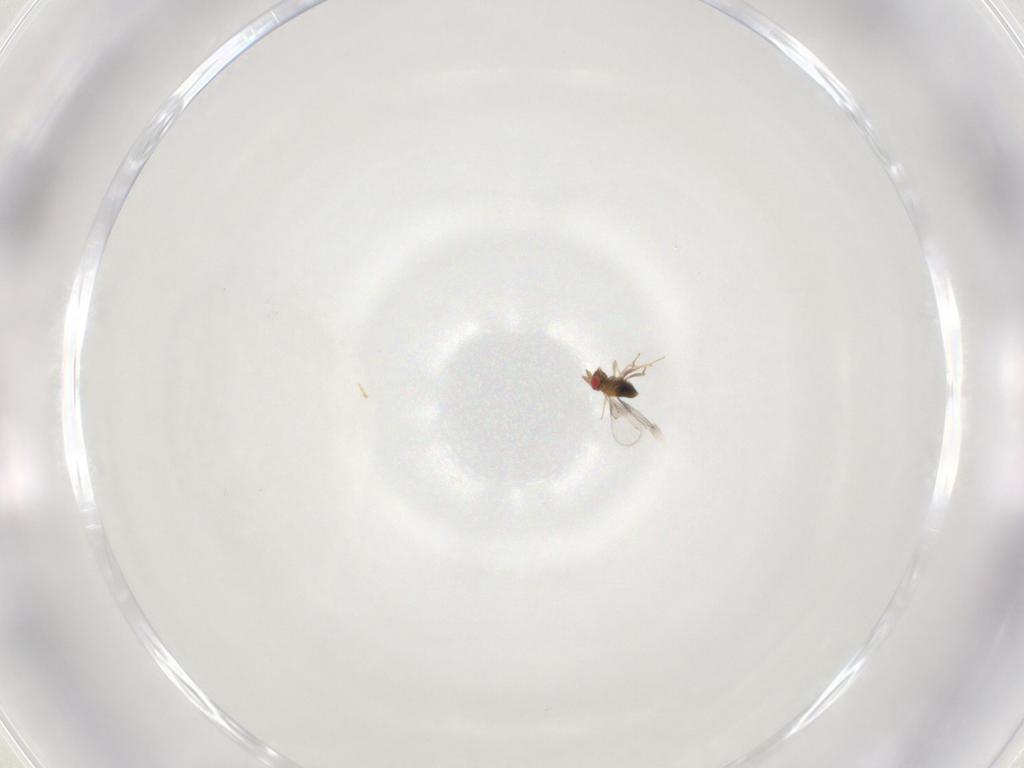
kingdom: Animalia
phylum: Arthropoda
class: Insecta
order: Hymenoptera
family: Formicidae
